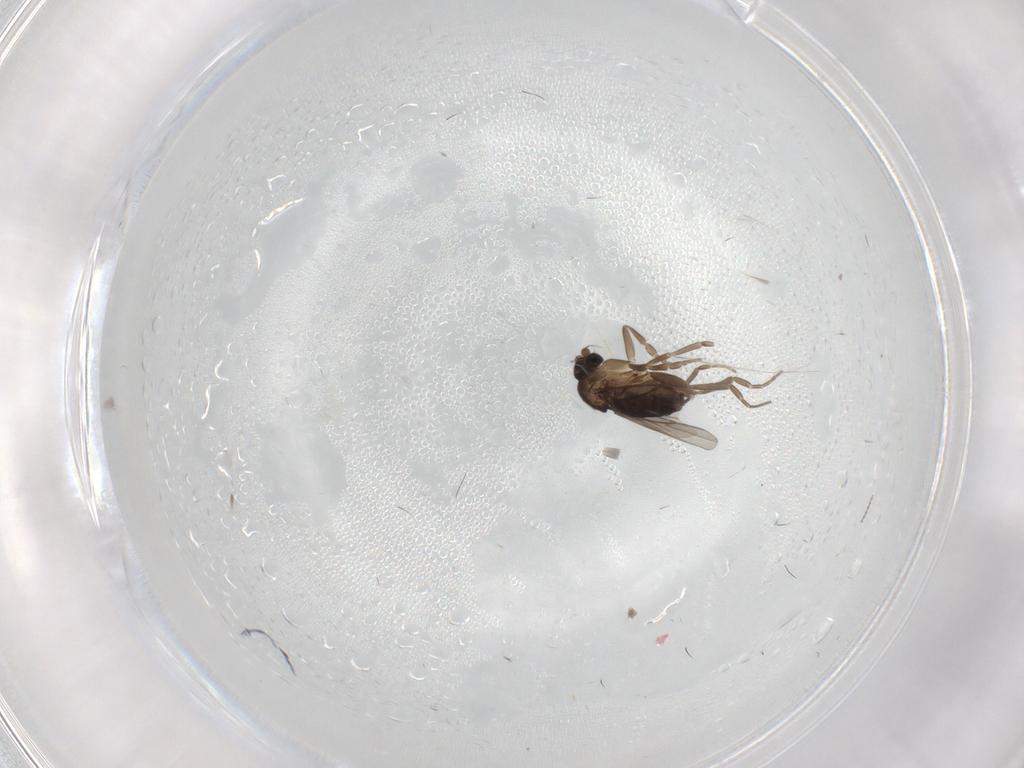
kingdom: Animalia
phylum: Arthropoda
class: Insecta
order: Diptera
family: Phoridae
